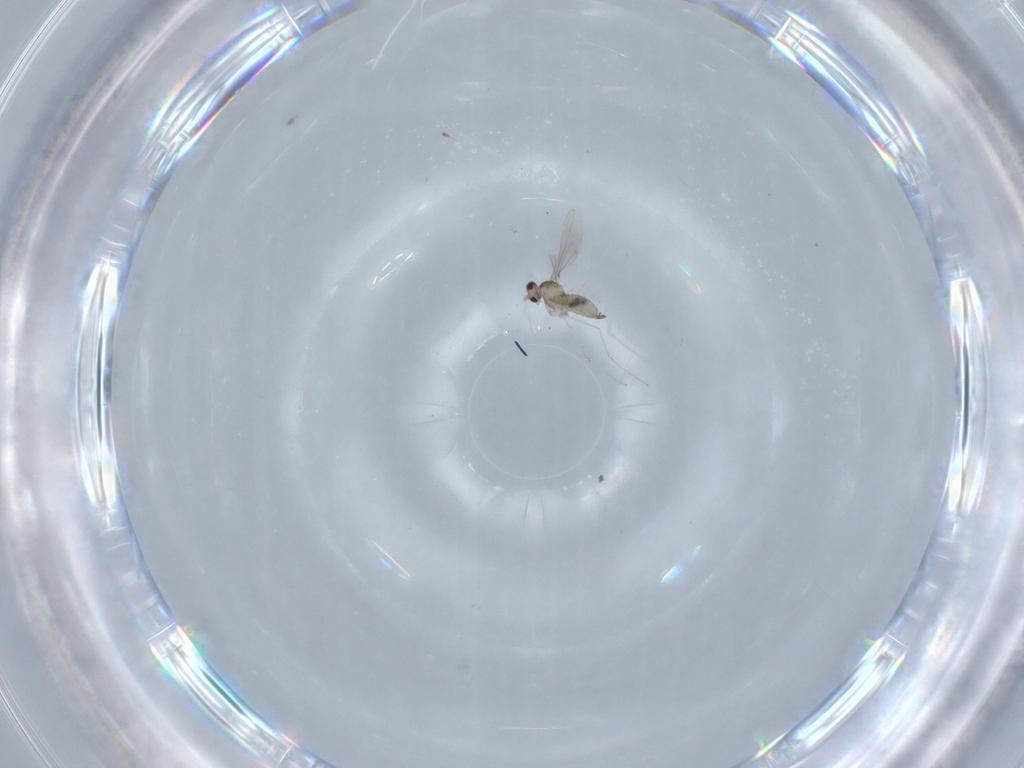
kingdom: Animalia
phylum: Arthropoda
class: Insecta
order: Diptera
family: Cecidomyiidae
